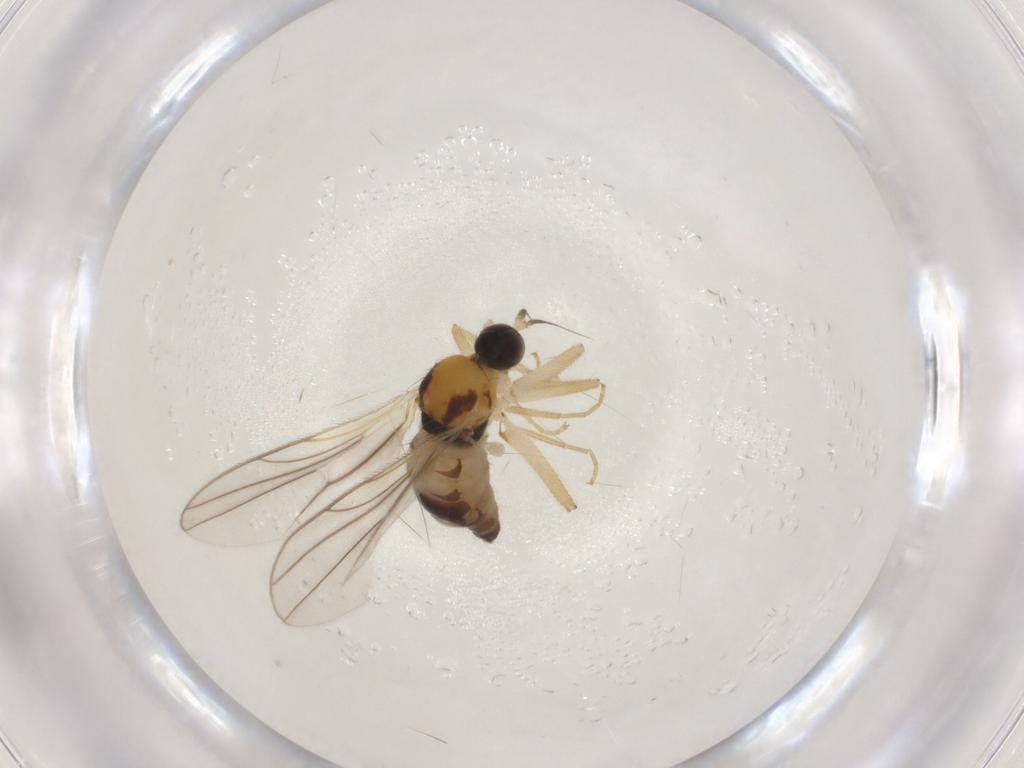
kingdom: Animalia
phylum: Arthropoda
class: Insecta
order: Diptera
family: Hybotidae
